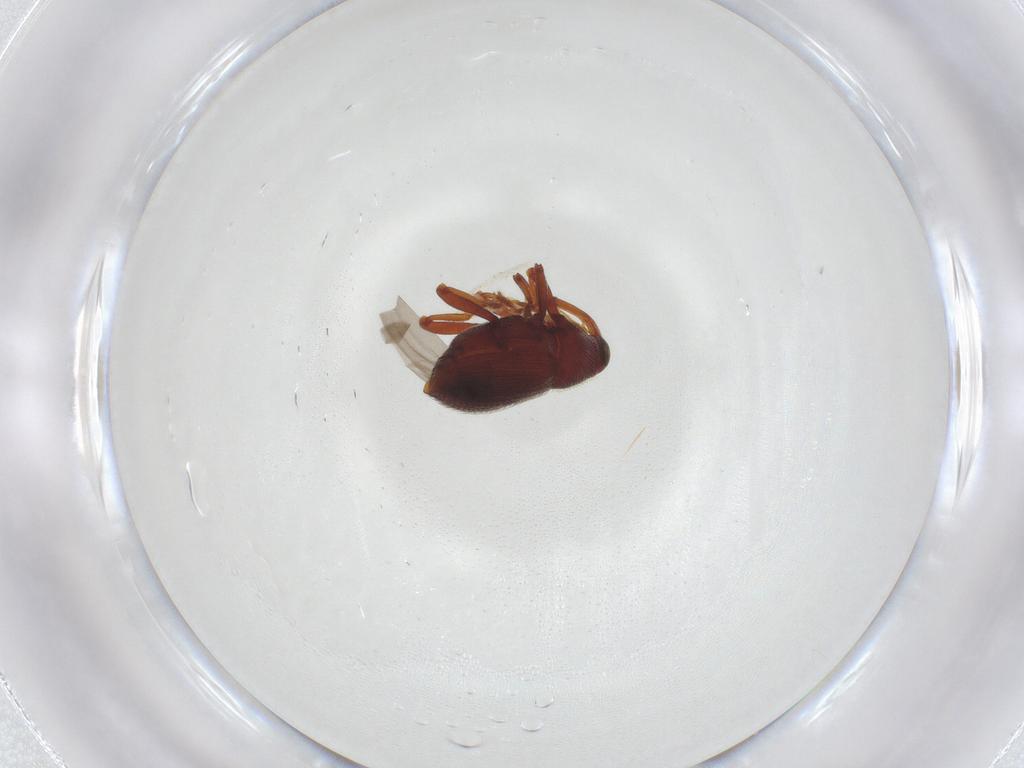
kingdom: Animalia
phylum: Arthropoda
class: Insecta
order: Coleoptera
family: Curculionidae
